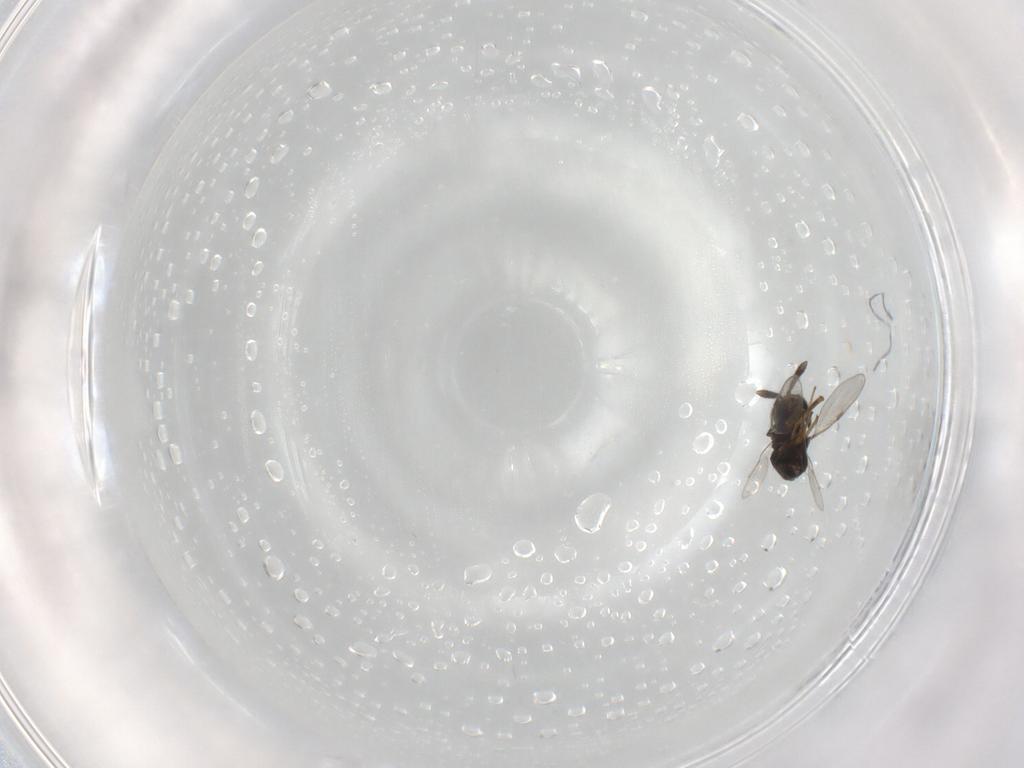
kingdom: Animalia
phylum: Arthropoda
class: Insecta
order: Hymenoptera
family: Encyrtidae
